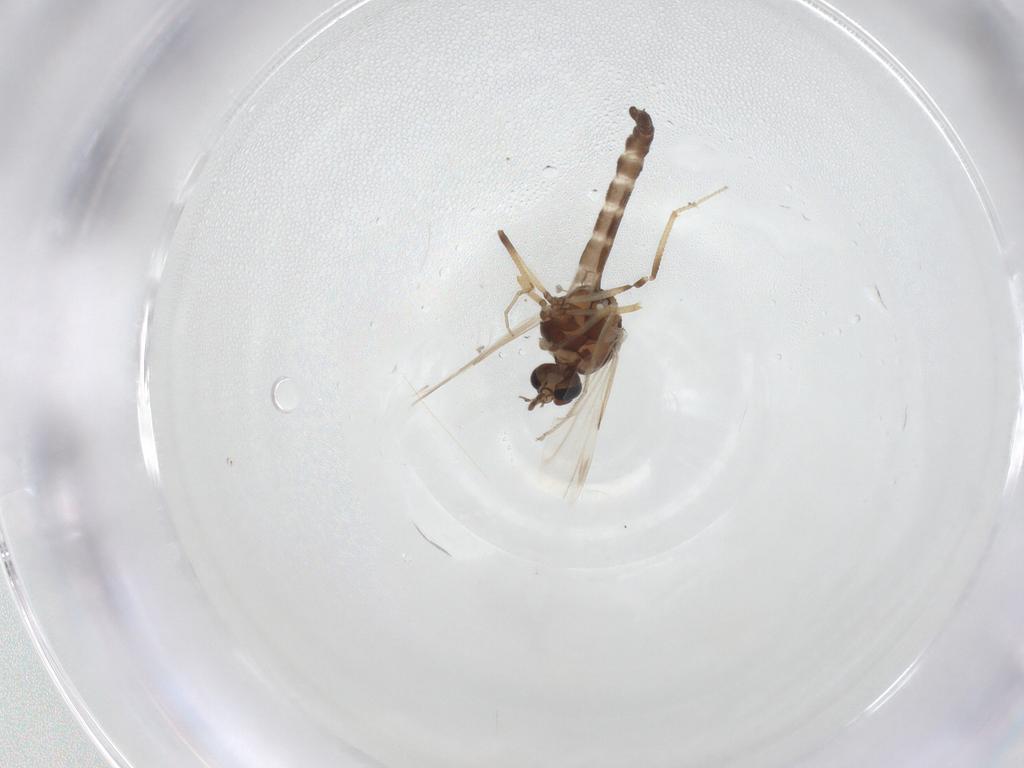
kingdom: Animalia
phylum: Arthropoda
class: Insecta
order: Diptera
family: Ceratopogonidae
